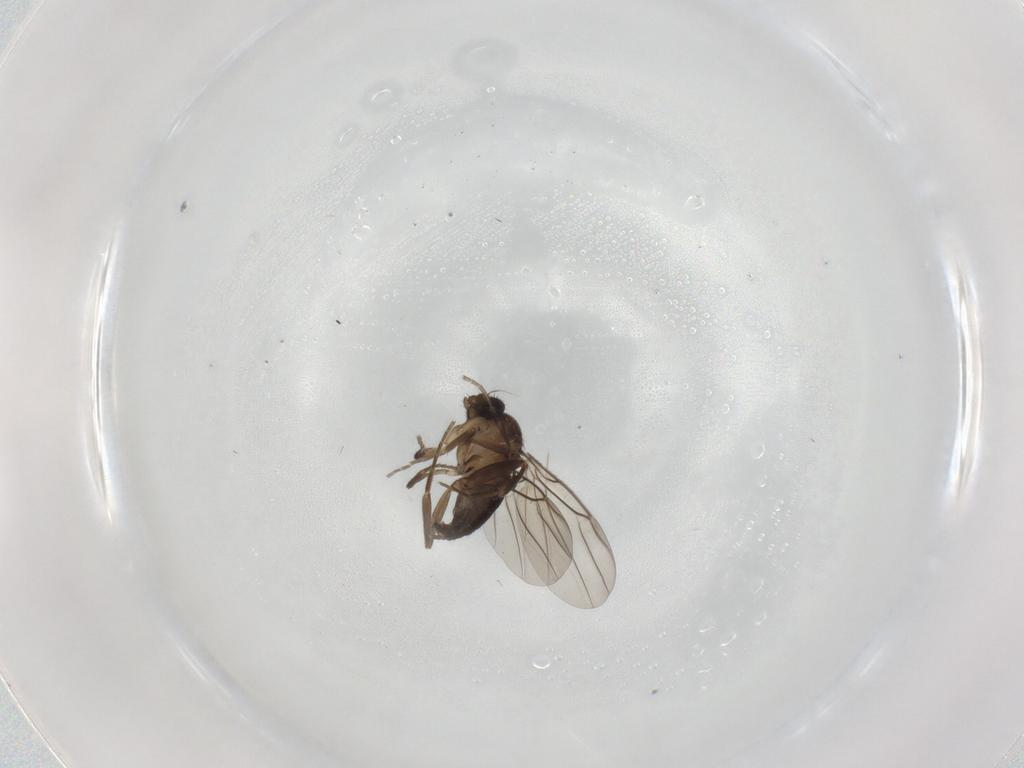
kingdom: Animalia
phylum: Arthropoda
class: Insecta
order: Diptera
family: Phoridae
